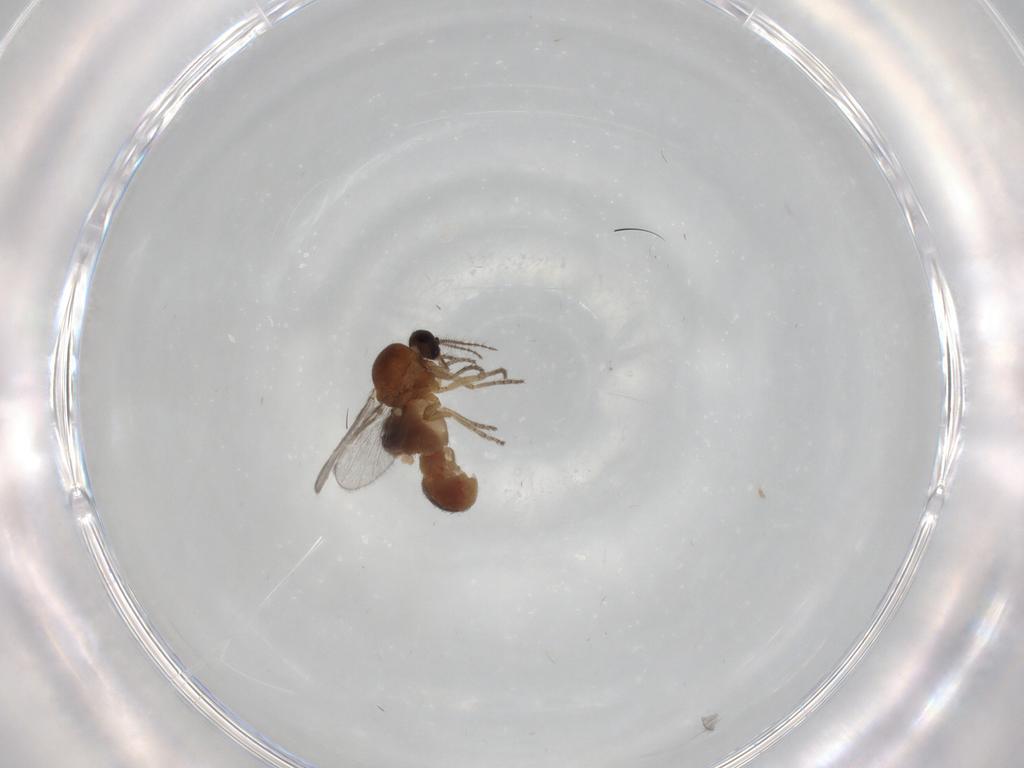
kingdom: Animalia
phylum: Arthropoda
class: Insecta
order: Diptera
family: Ceratopogonidae
